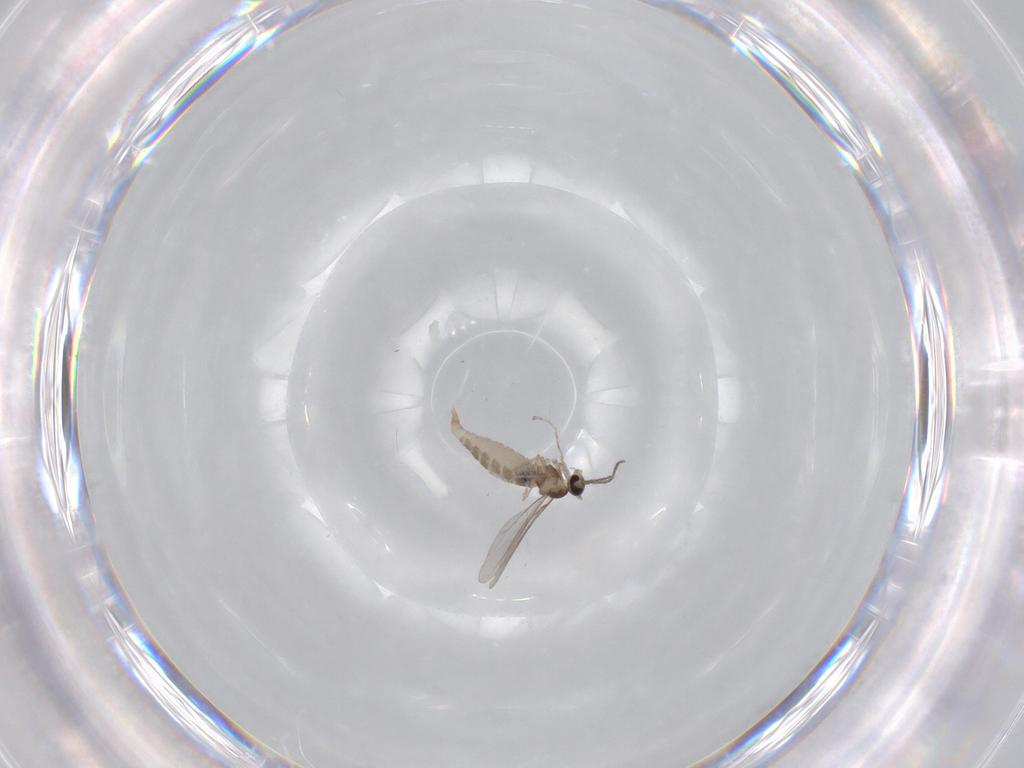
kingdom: Animalia
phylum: Arthropoda
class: Insecta
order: Diptera
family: Phoridae
